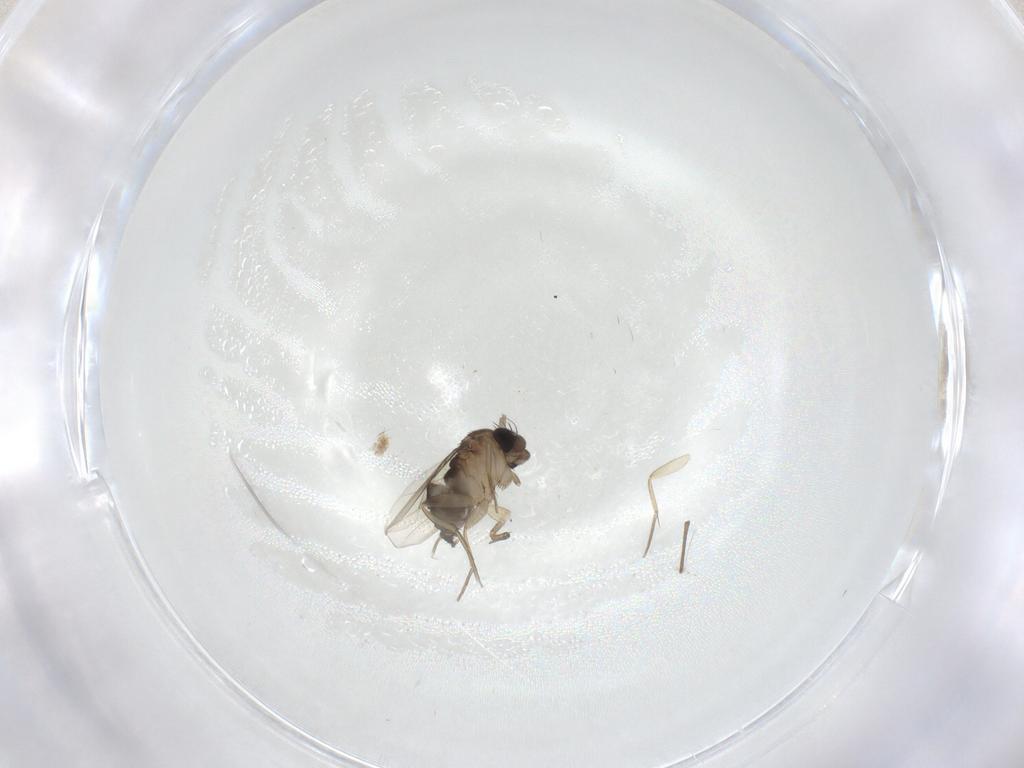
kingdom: Animalia
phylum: Arthropoda
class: Insecta
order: Diptera
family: Phoridae
